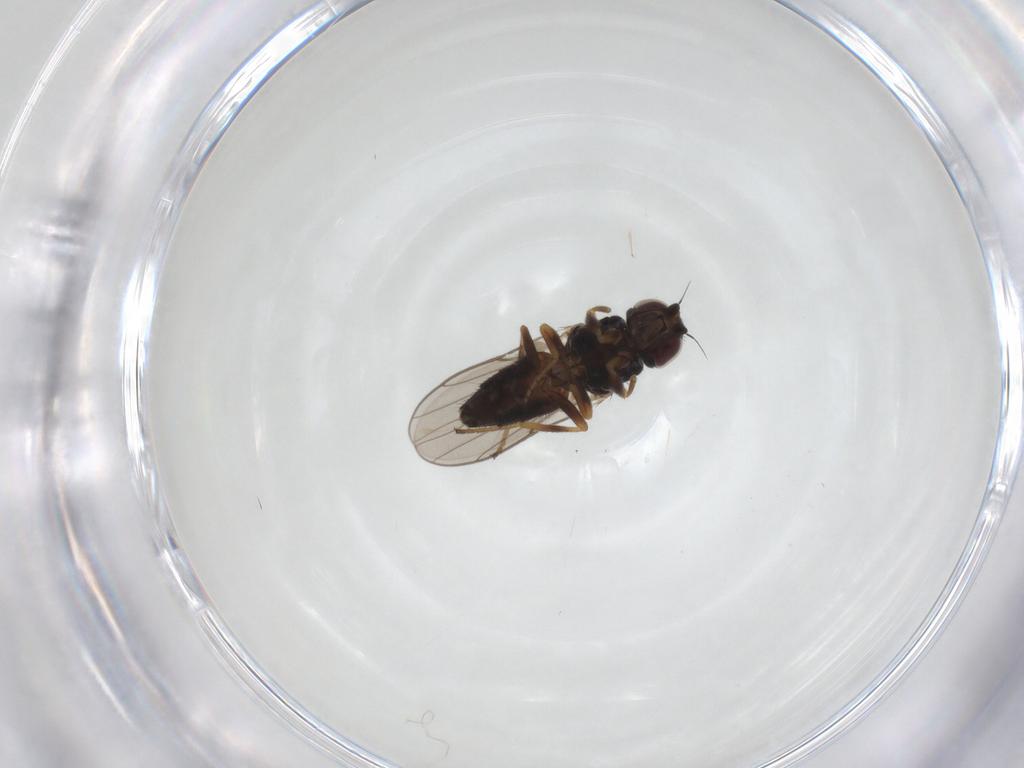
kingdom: Animalia
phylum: Arthropoda
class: Insecta
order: Diptera
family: Chloropidae
